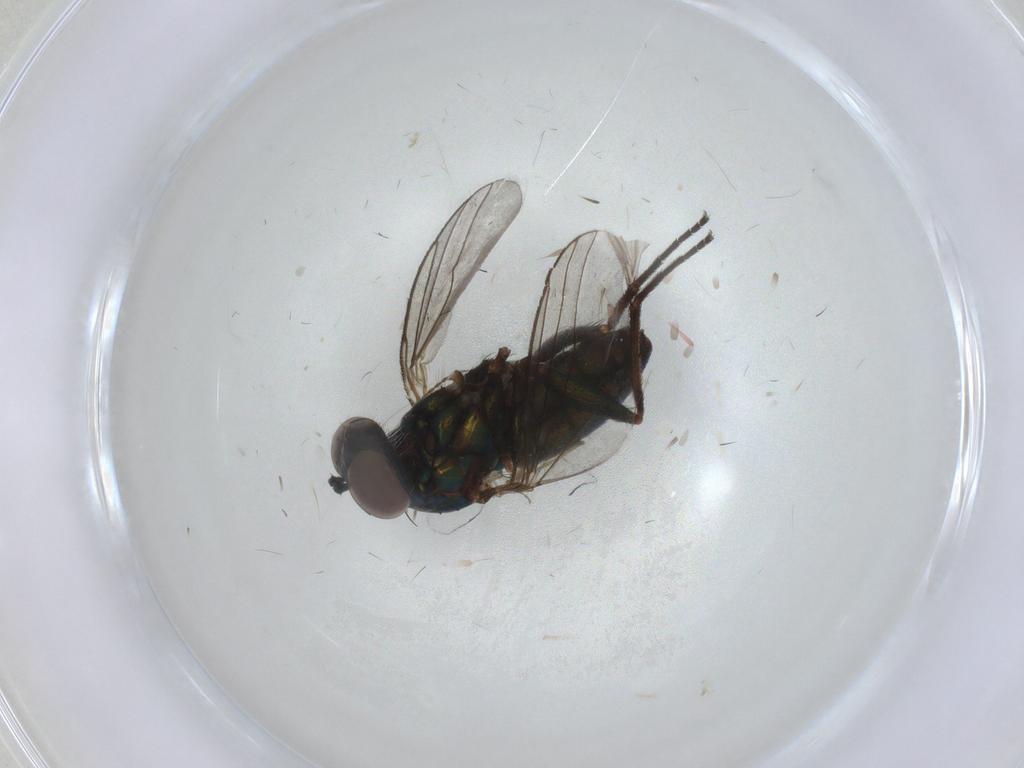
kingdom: Animalia
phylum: Arthropoda
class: Insecta
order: Diptera
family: Dolichopodidae
